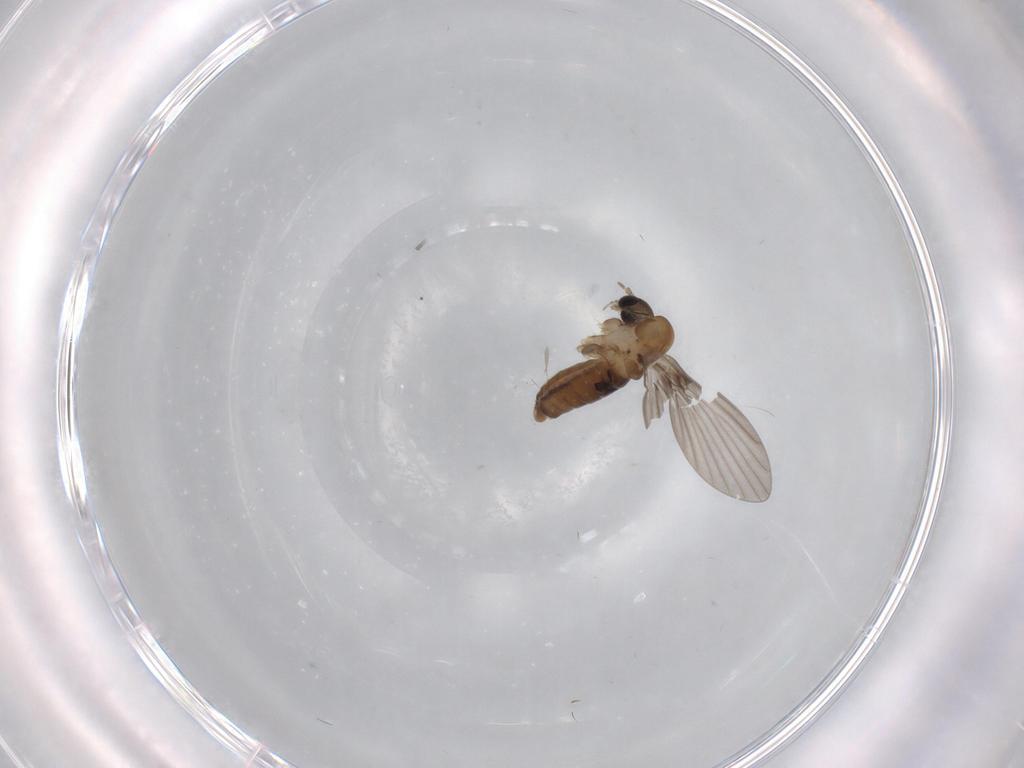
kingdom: Animalia
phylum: Arthropoda
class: Insecta
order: Diptera
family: Cecidomyiidae
